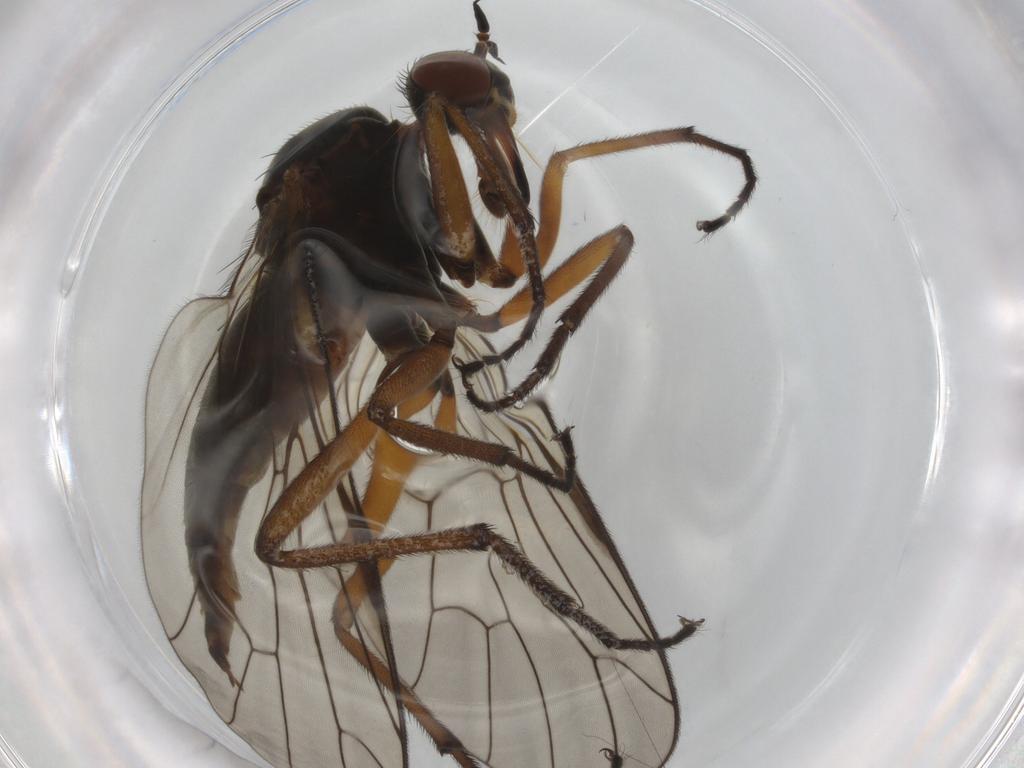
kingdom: Animalia
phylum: Arthropoda
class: Insecta
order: Diptera
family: Empididae
